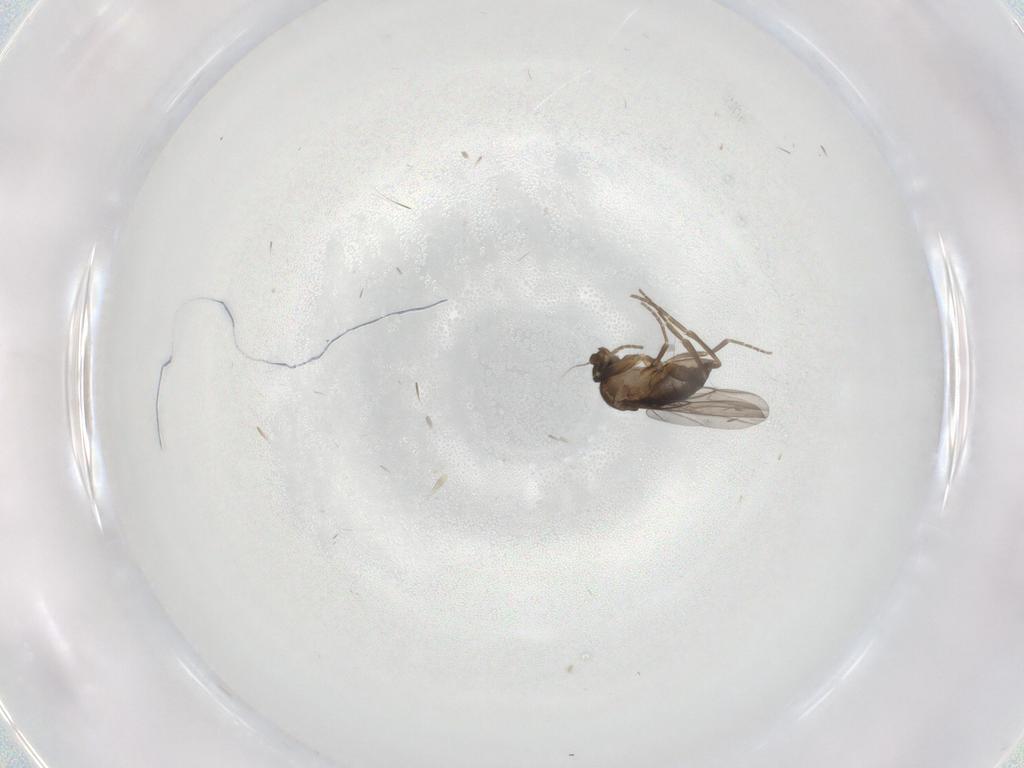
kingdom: Animalia
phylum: Arthropoda
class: Insecta
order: Diptera
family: Phoridae
